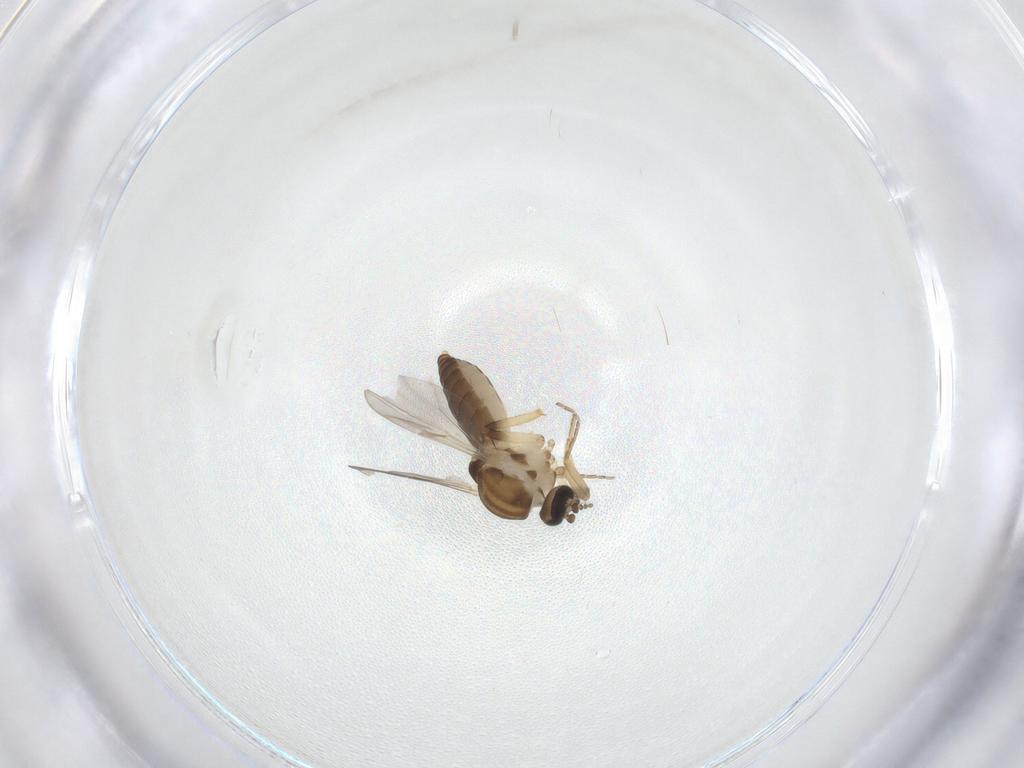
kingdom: Animalia
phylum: Arthropoda
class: Insecta
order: Diptera
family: Ceratopogonidae
